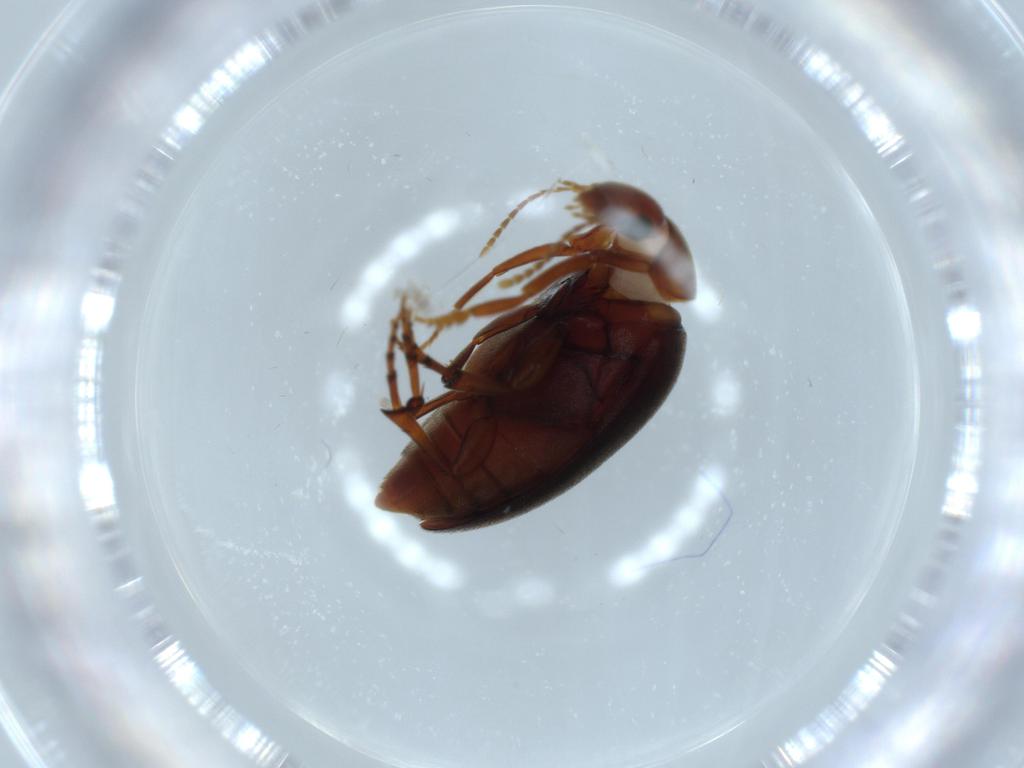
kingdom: Animalia
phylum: Arthropoda
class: Insecta
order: Coleoptera
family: Eucinetidae
